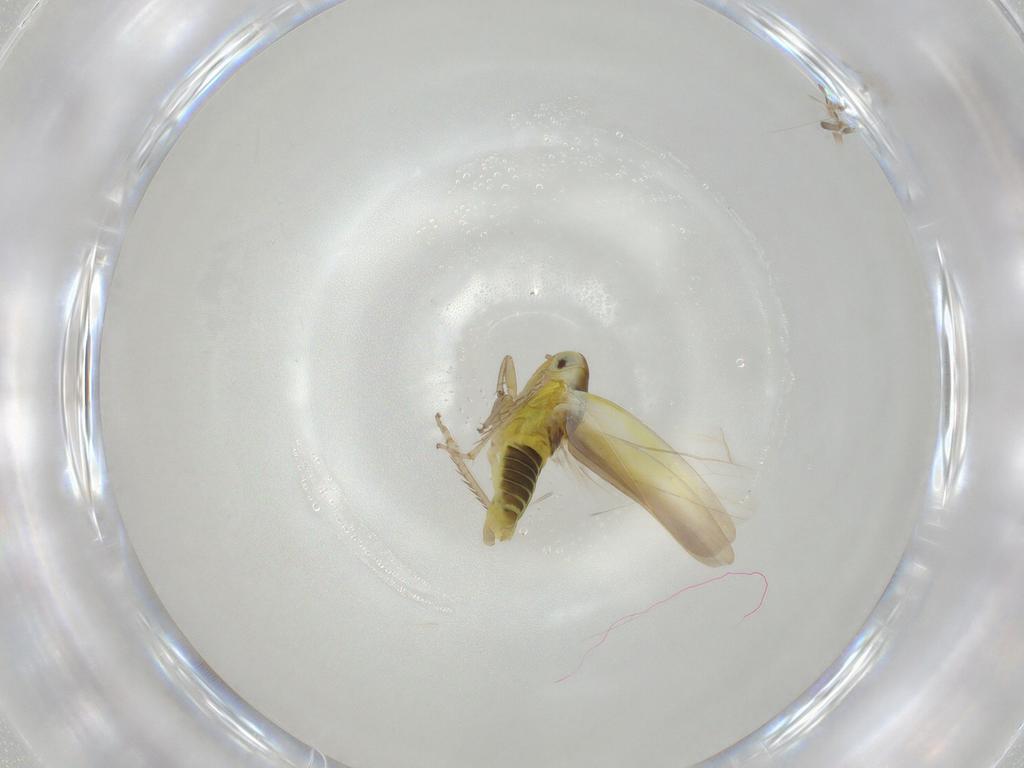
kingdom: Animalia
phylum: Arthropoda
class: Insecta
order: Hemiptera
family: Cicadellidae
